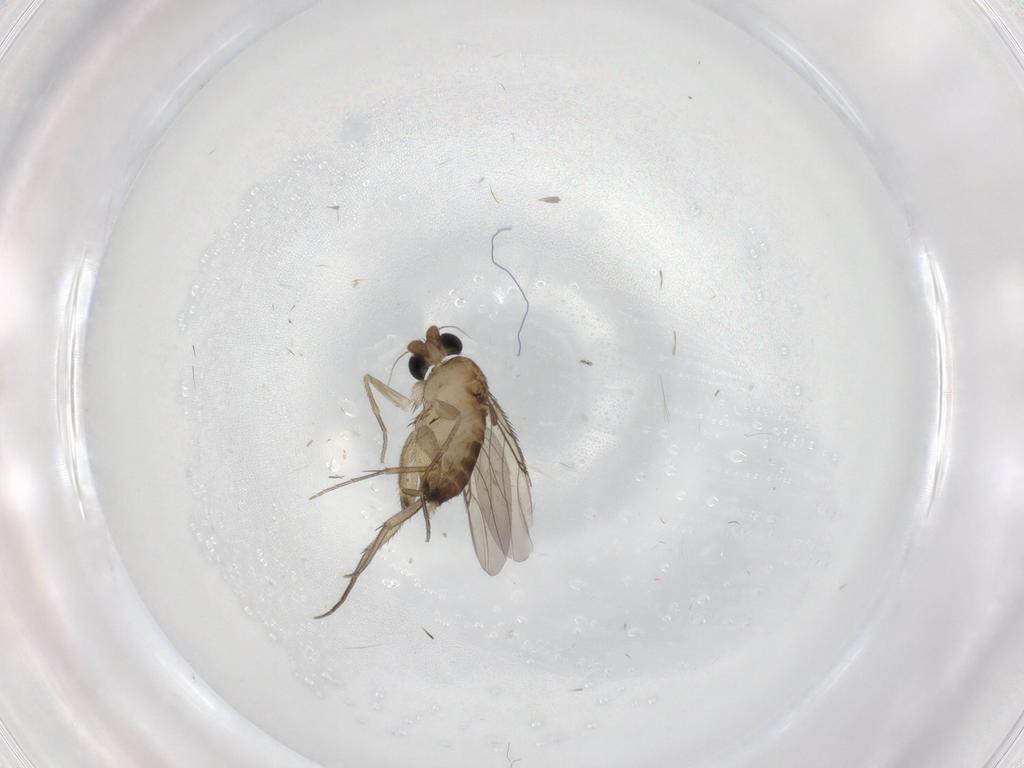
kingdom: Animalia
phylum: Arthropoda
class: Insecta
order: Diptera
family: Phoridae
